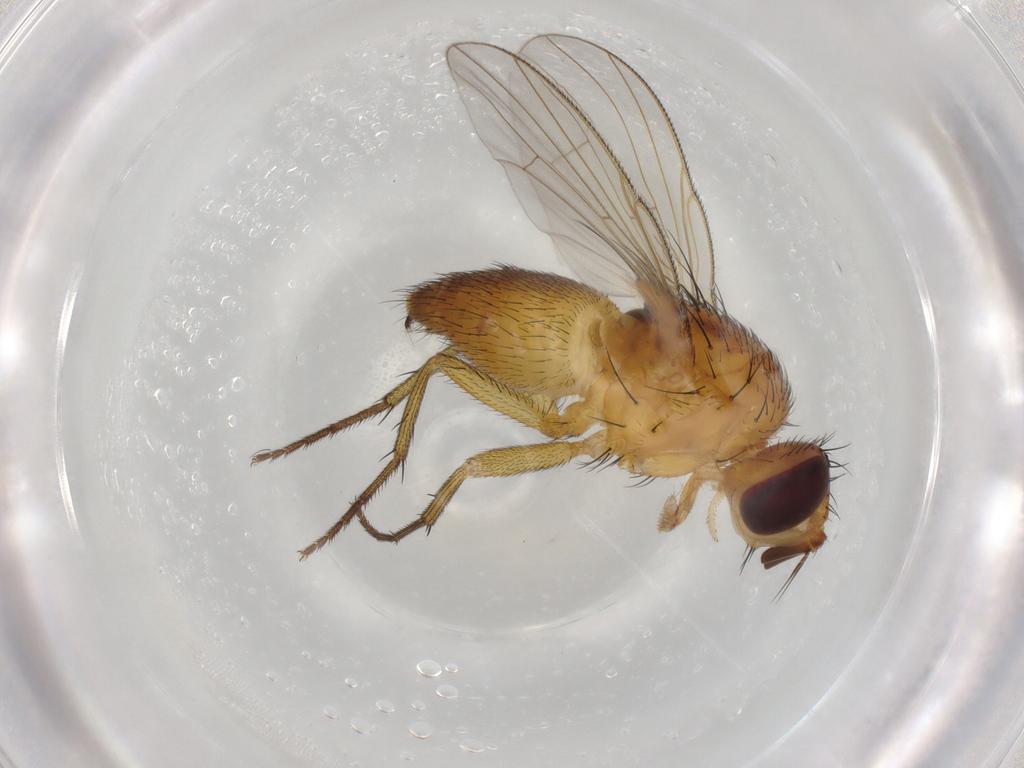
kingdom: Animalia
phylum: Arthropoda
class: Insecta
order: Diptera
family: Muscidae
